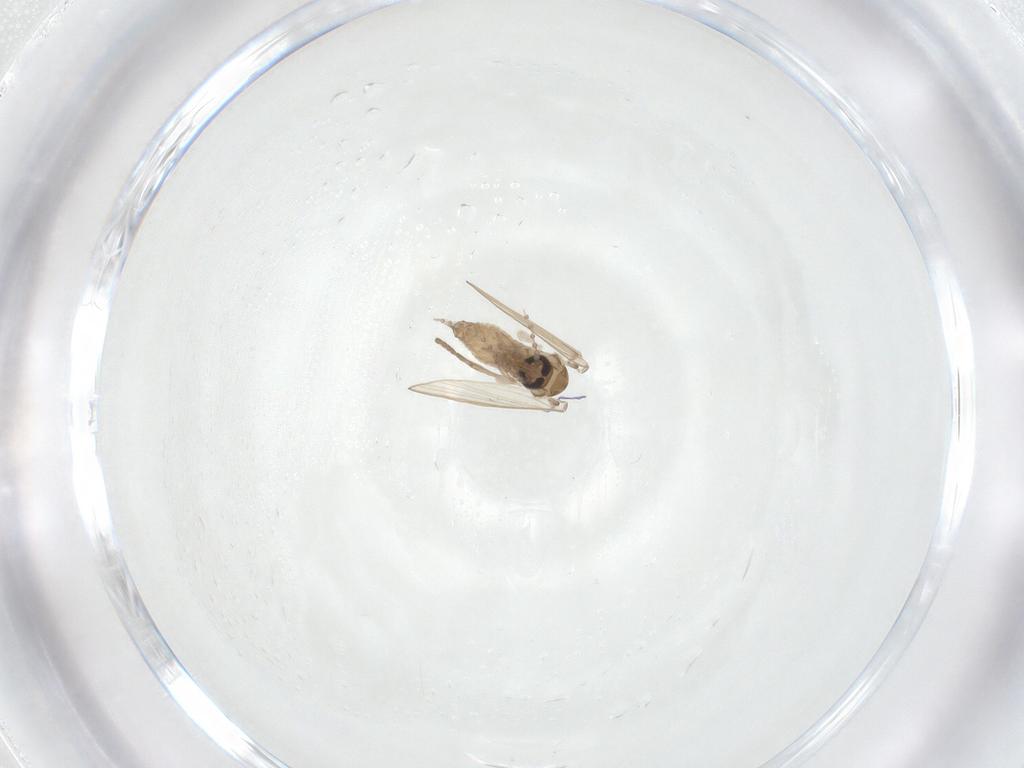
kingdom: Animalia
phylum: Arthropoda
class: Insecta
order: Diptera
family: Psychodidae
